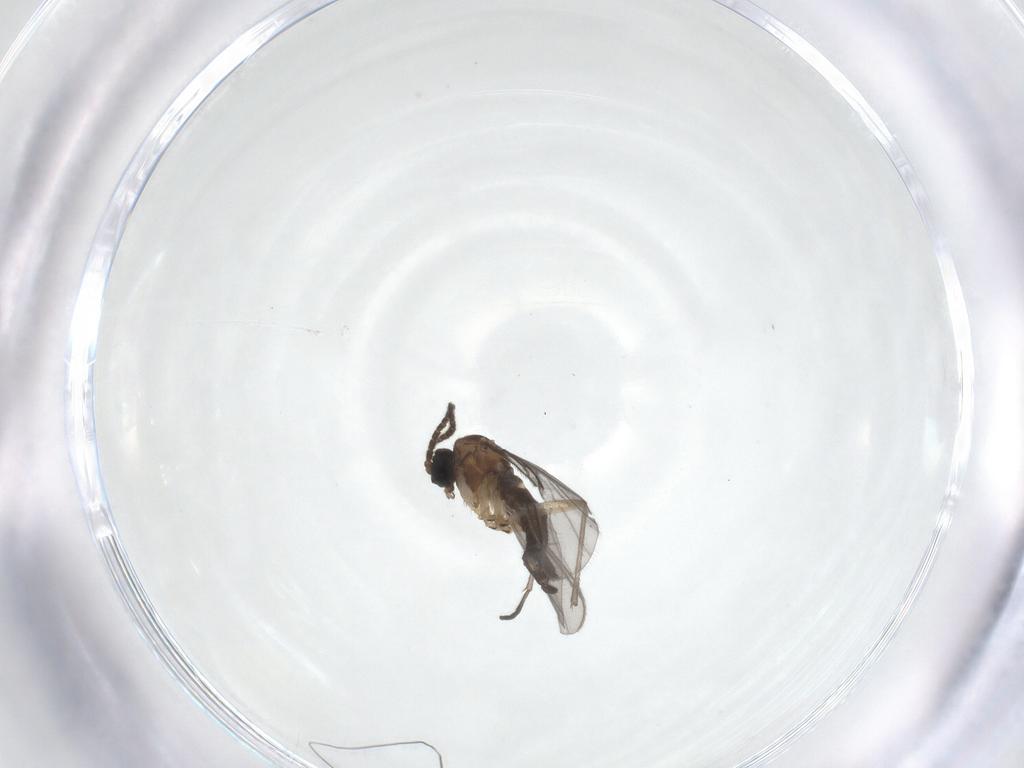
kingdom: Animalia
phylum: Arthropoda
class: Insecta
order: Diptera
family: Sciaridae
